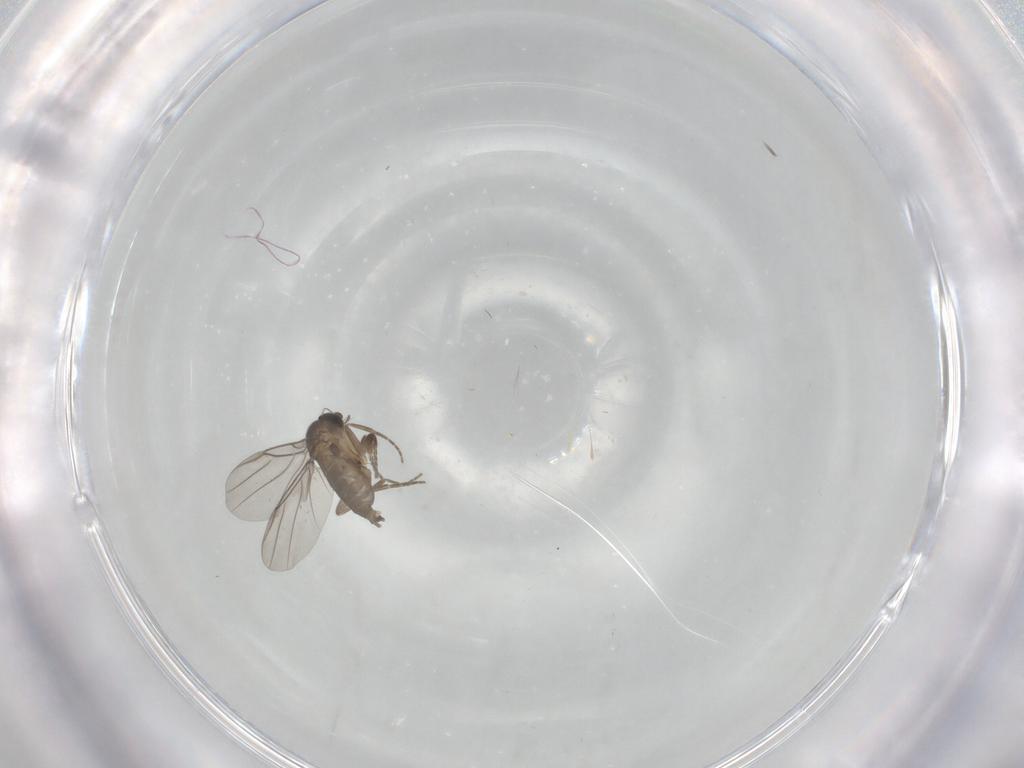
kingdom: Animalia
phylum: Arthropoda
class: Insecta
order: Diptera
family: Phoridae
